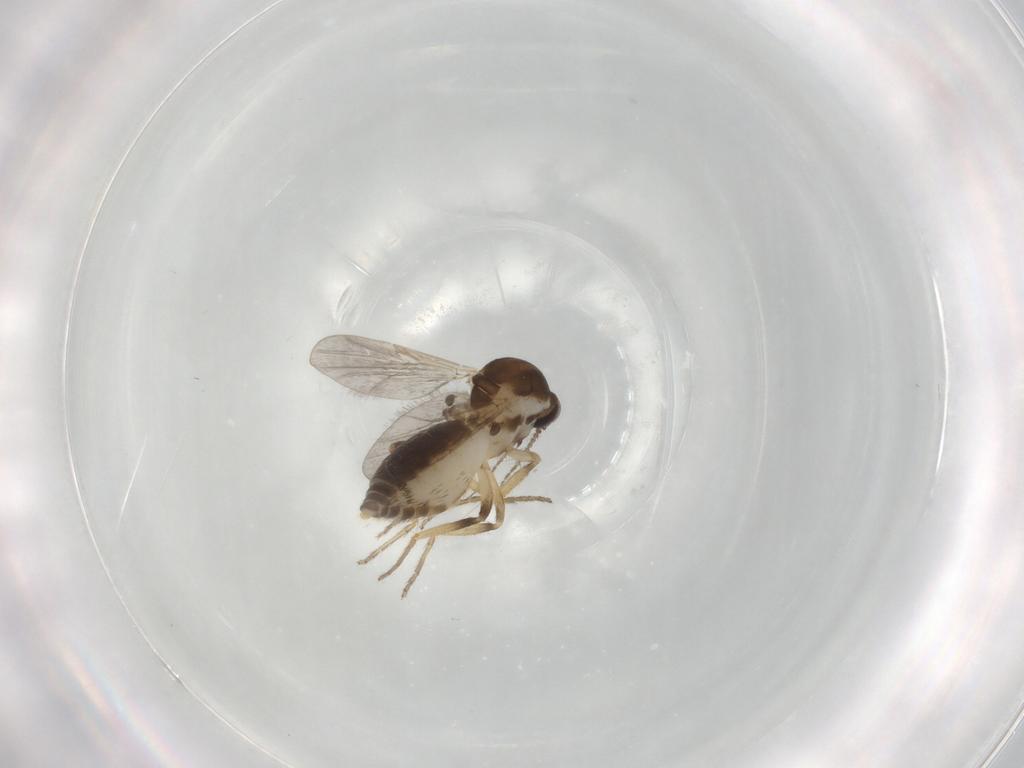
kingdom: Animalia
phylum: Arthropoda
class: Insecta
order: Diptera
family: Ceratopogonidae
